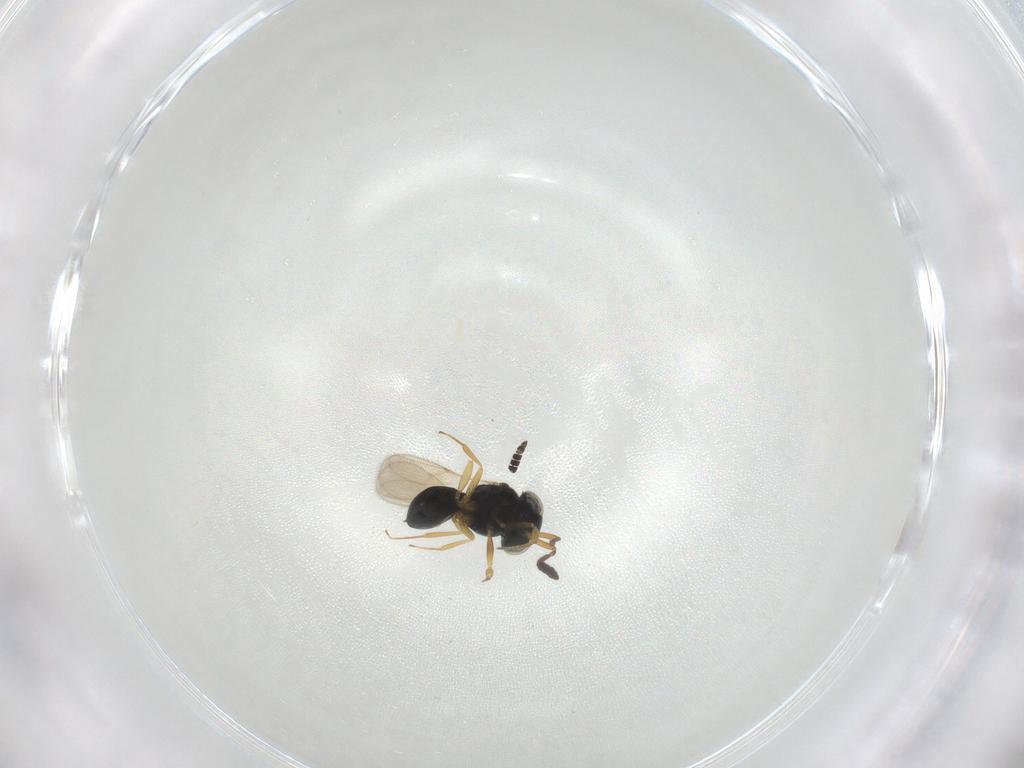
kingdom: Animalia
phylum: Arthropoda
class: Insecta
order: Hymenoptera
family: Scelionidae
